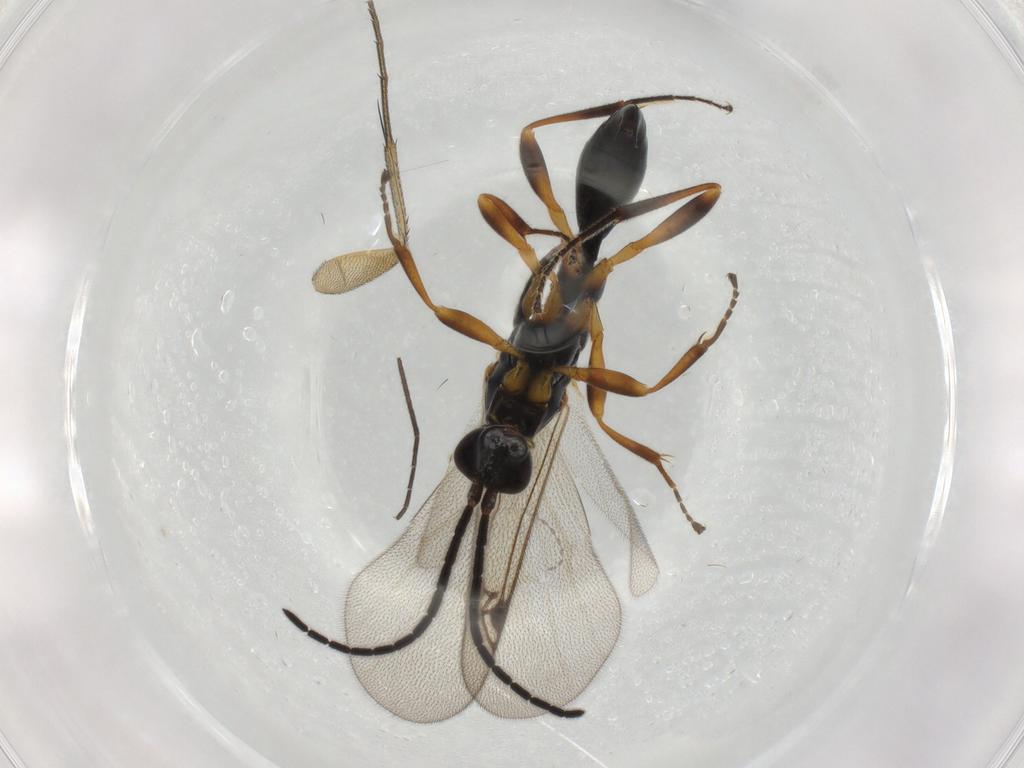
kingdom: Animalia
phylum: Arthropoda
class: Insecta
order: Hymenoptera
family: Proctotrupidae
